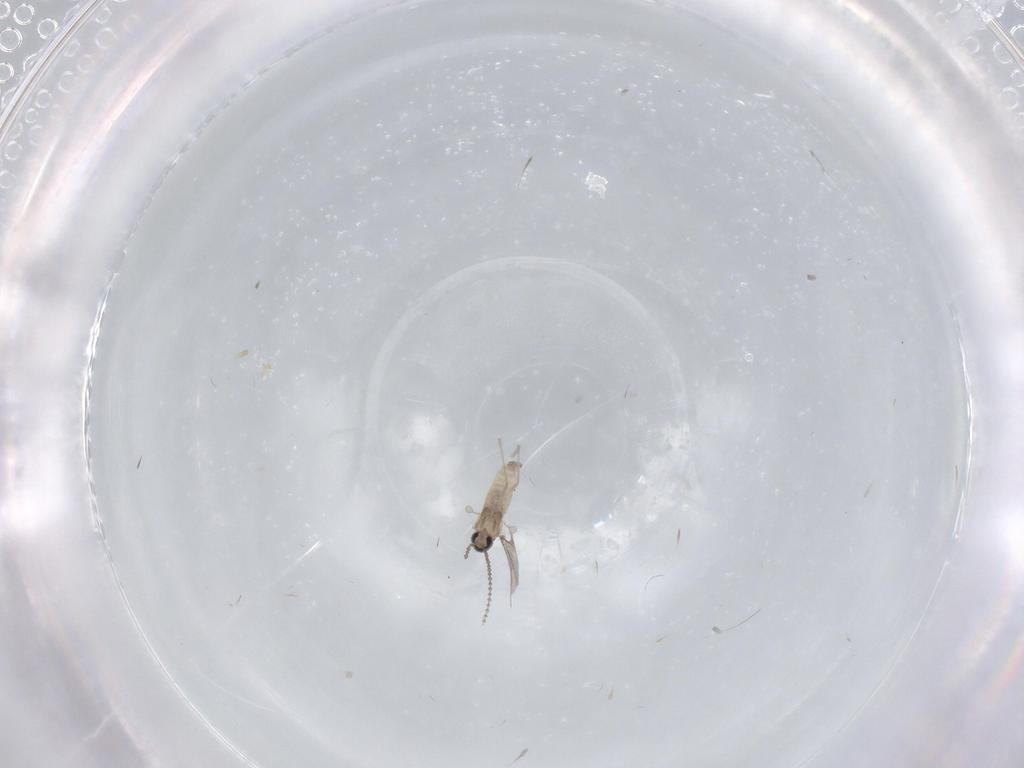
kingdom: Animalia
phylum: Arthropoda
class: Insecta
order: Diptera
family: Cecidomyiidae
